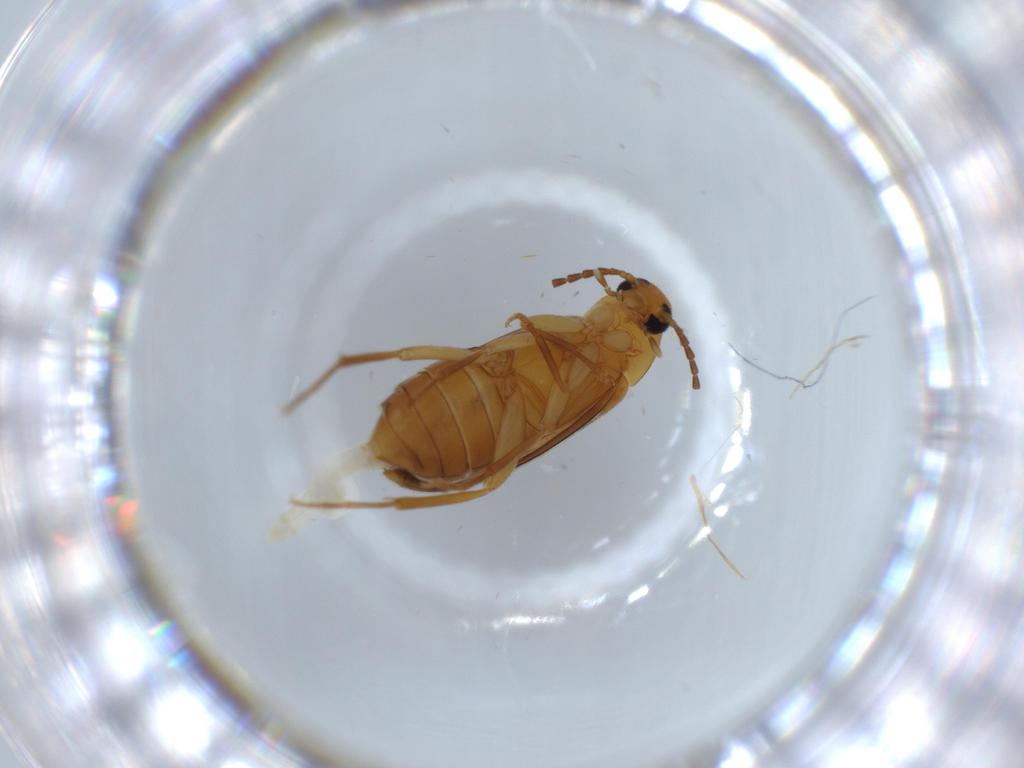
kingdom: Animalia
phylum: Arthropoda
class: Insecta
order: Coleoptera
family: Scraptiidae
